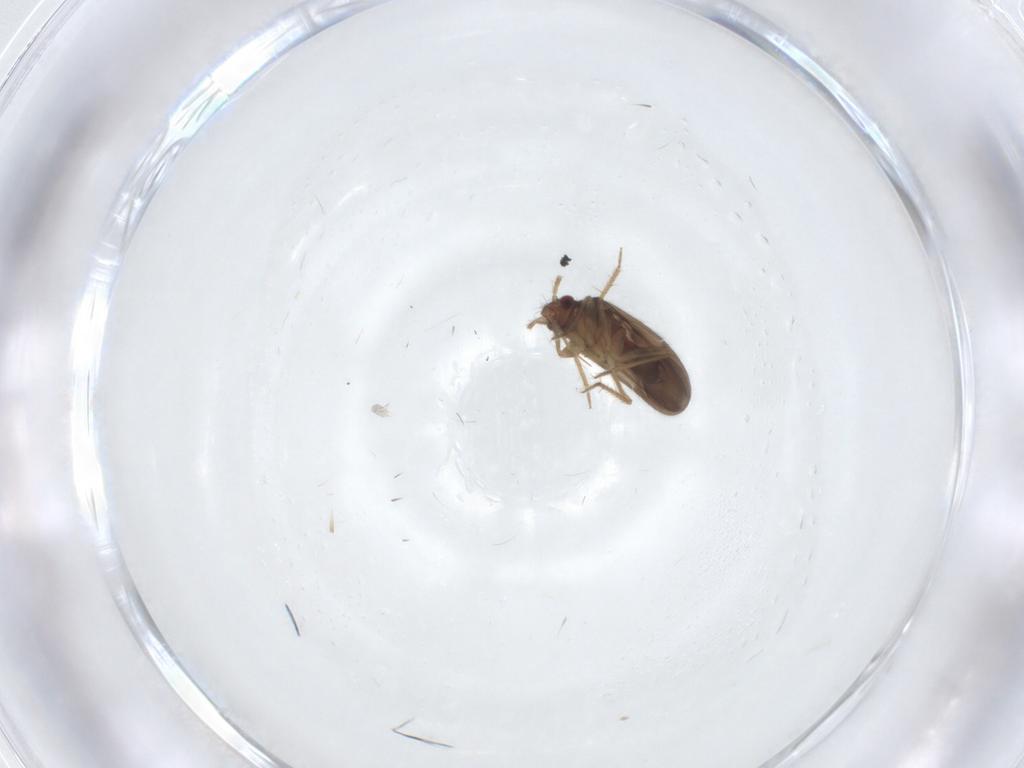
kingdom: Animalia
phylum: Arthropoda
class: Insecta
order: Hemiptera
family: Ceratocombidae
